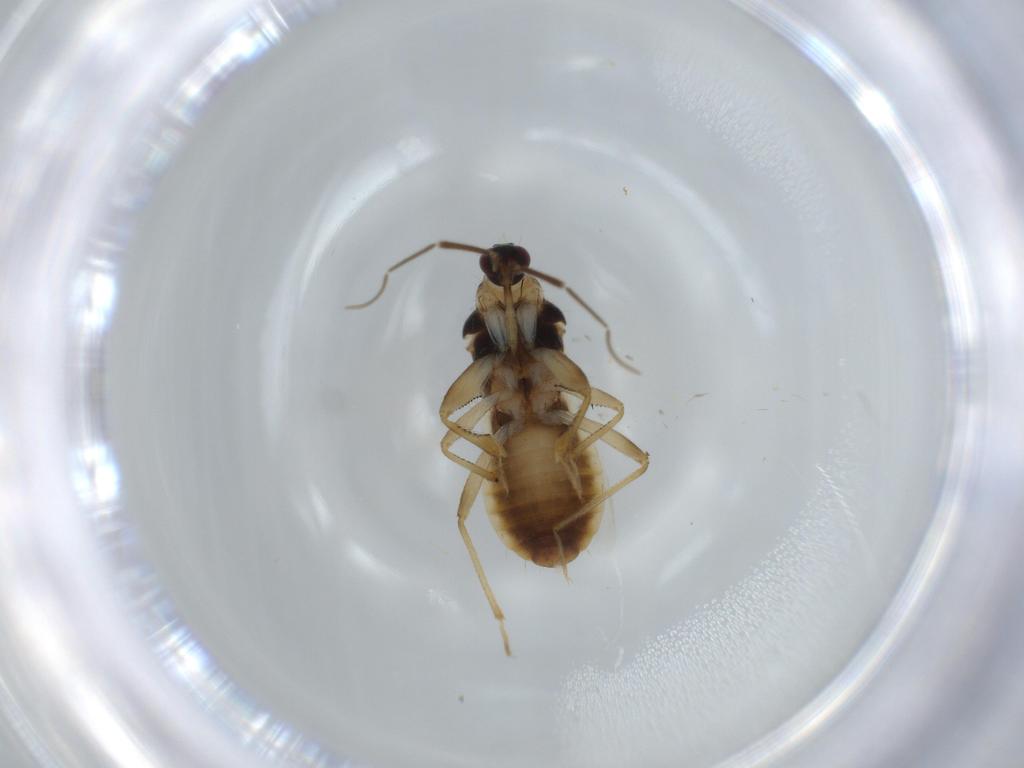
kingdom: Animalia
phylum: Arthropoda
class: Insecta
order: Hemiptera
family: Nabidae
